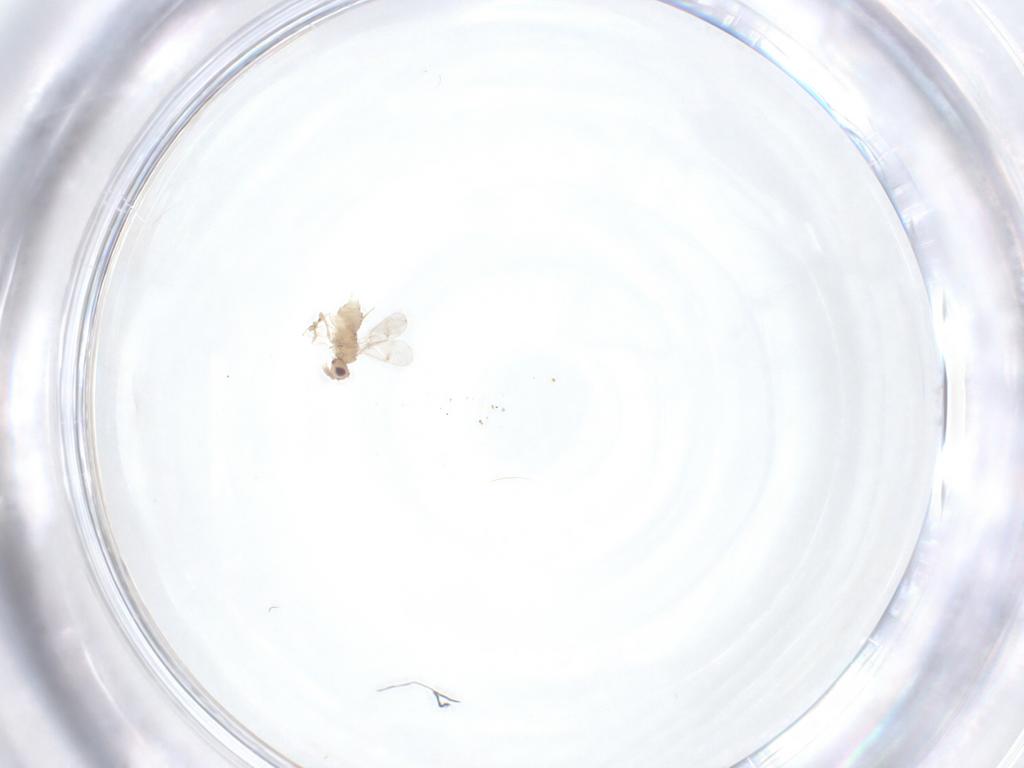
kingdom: Animalia
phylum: Arthropoda
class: Insecta
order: Hymenoptera
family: Aphelinidae
